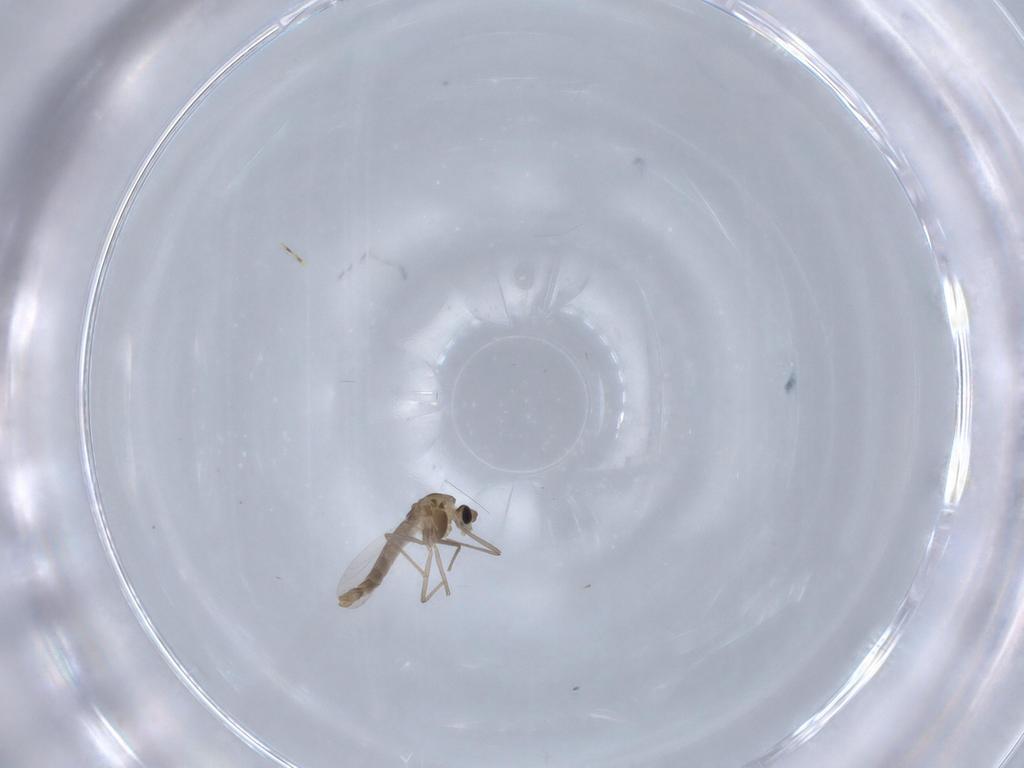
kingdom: Animalia
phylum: Arthropoda
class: Insecta
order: Diptera
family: Chironomidae
